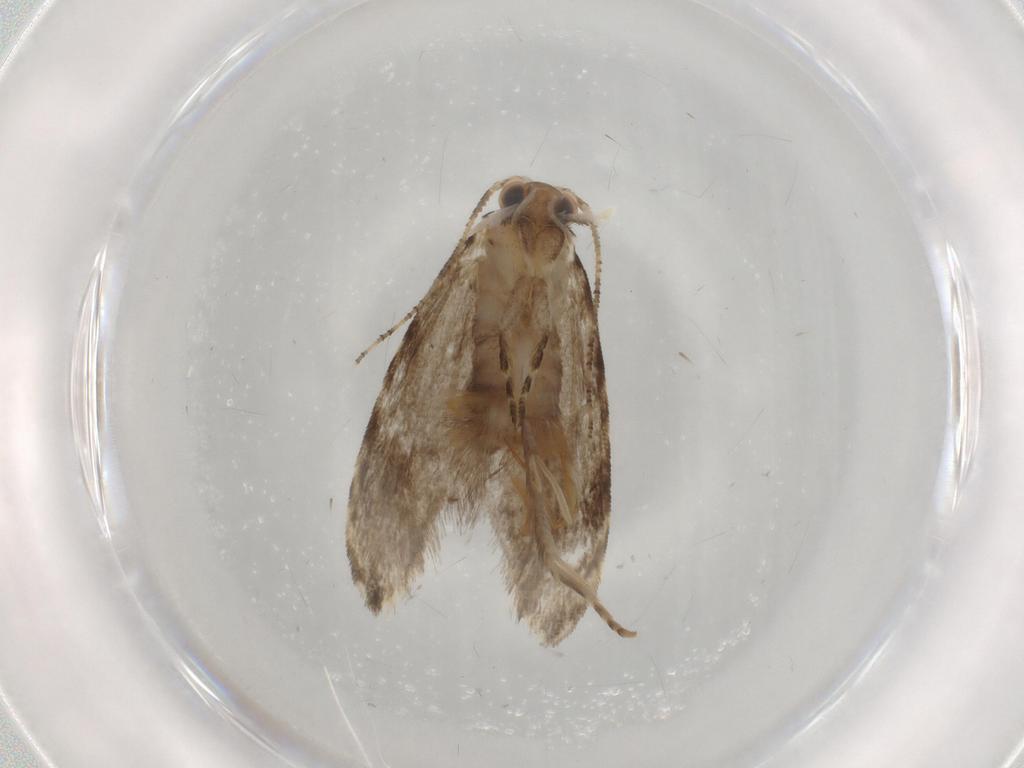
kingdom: Animalia
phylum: Arthropoda
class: Insecta
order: Lepidoptera
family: Tineidae
